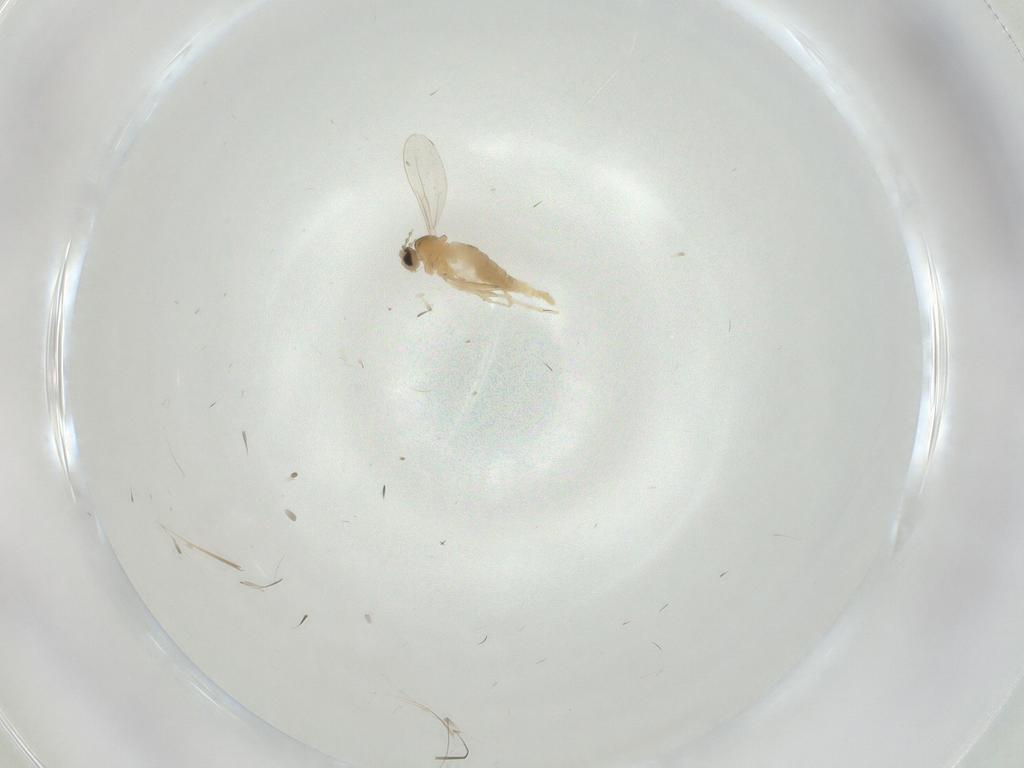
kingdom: Animalia
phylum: Arthropoda
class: Insecta
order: Diptera
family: Cecidomyiidae
